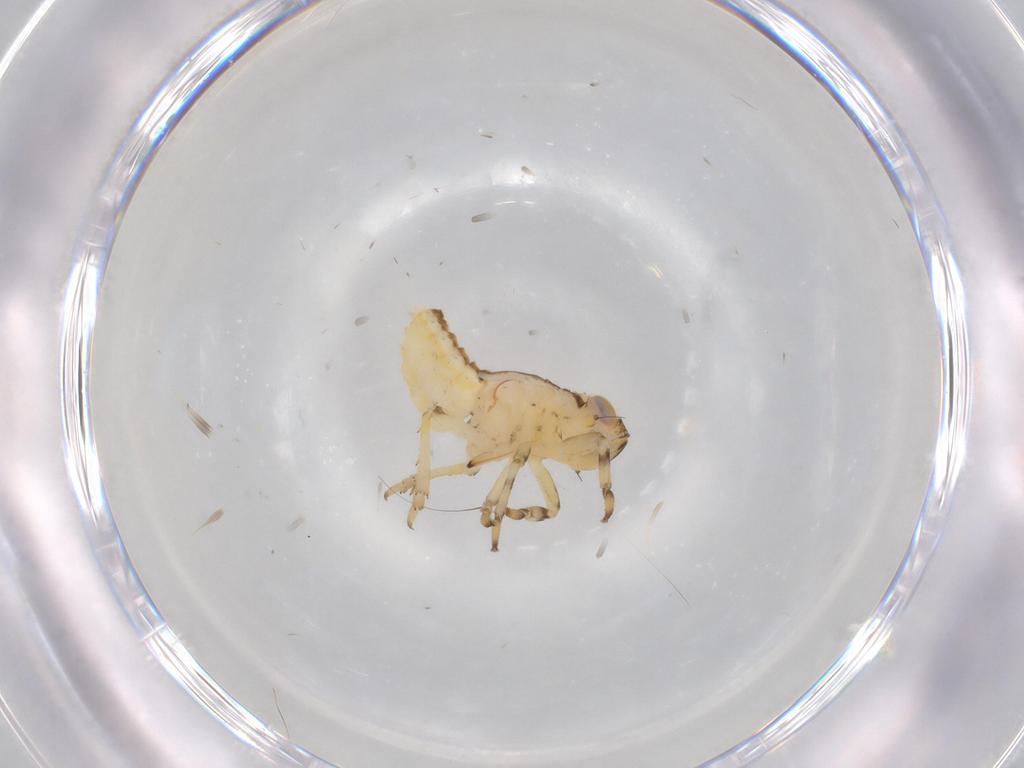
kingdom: Animalia
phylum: Arthropoda
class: Insecta
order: Hemiptera
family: Issidae
